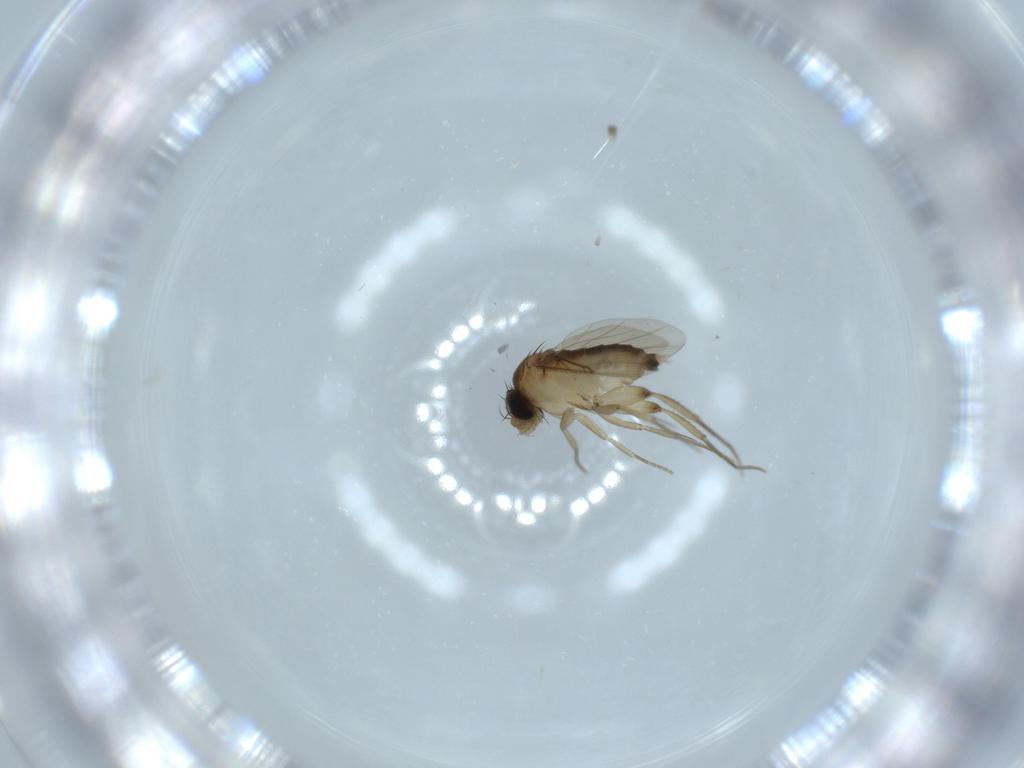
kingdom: Animalia
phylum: Arthropoda
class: Insecta
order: Diptera
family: Phoridae
